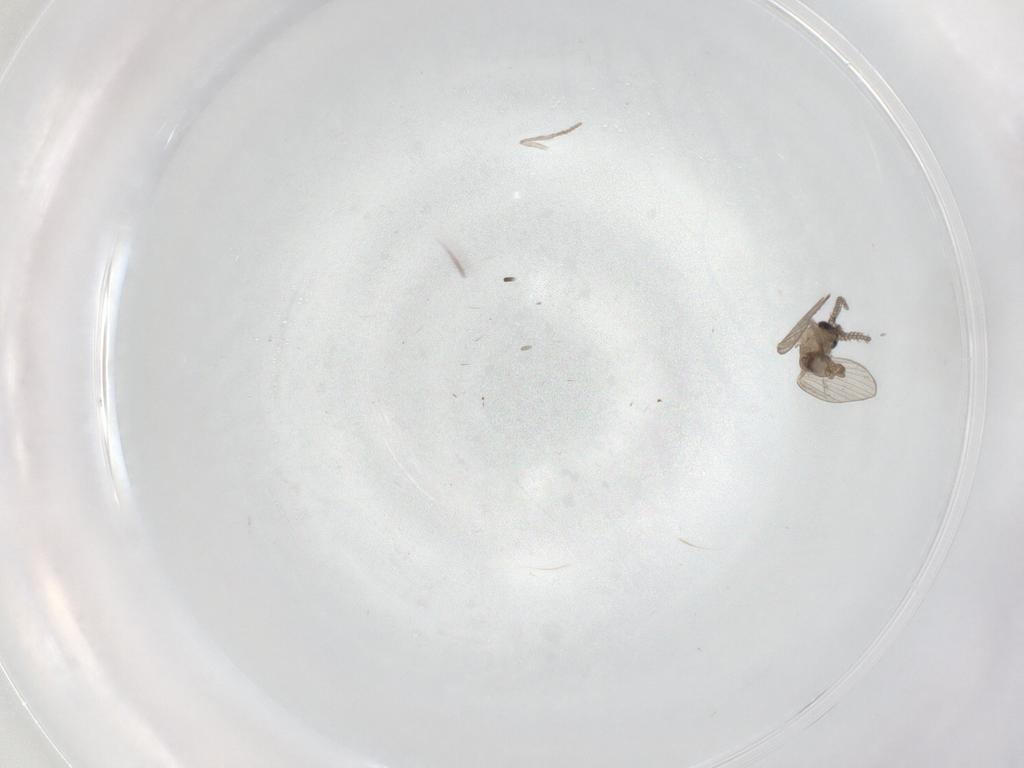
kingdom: Animalia
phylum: Arthropoda
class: Insecta
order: Diptera
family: Psychodidae
